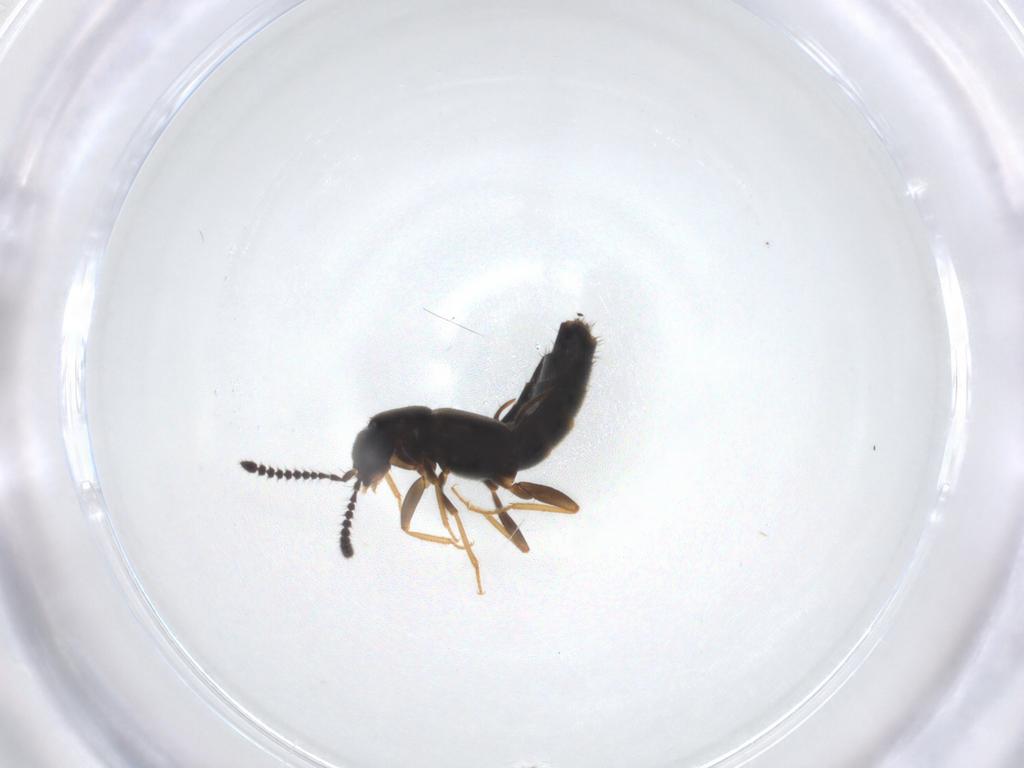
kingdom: Animalia
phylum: Arthropoda
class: Insecta
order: Coleoptera
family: Staphylinidae
